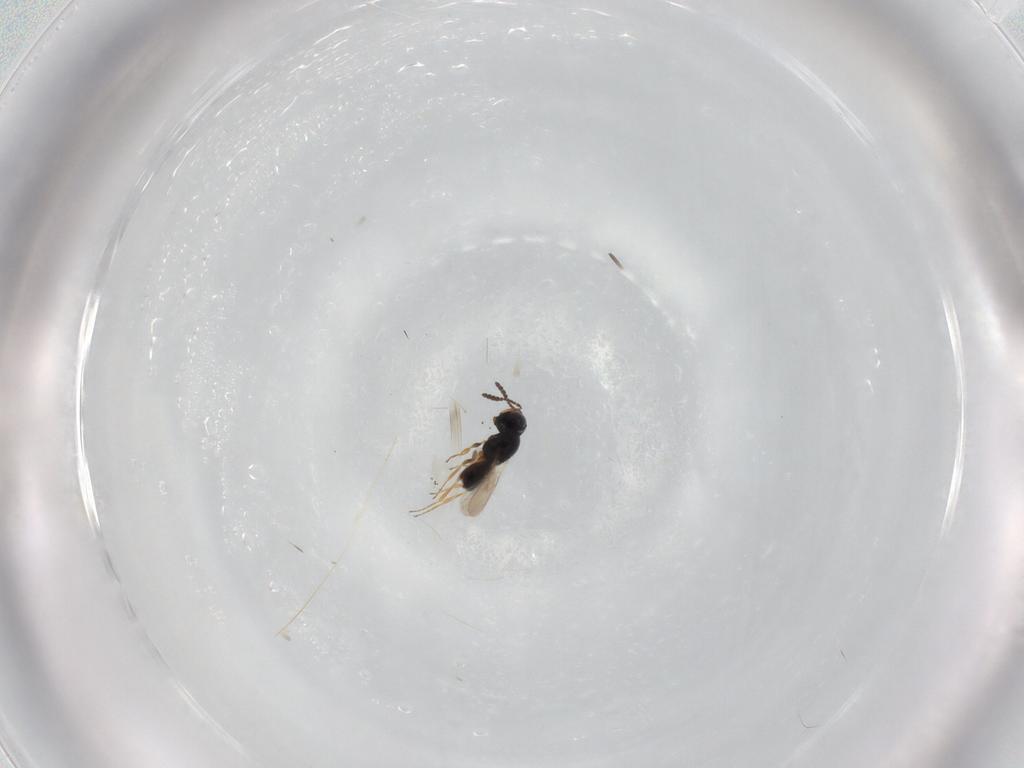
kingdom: Animalia
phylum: Arthropoda
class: Insecta
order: Hymenoptera
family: Scelionidae
